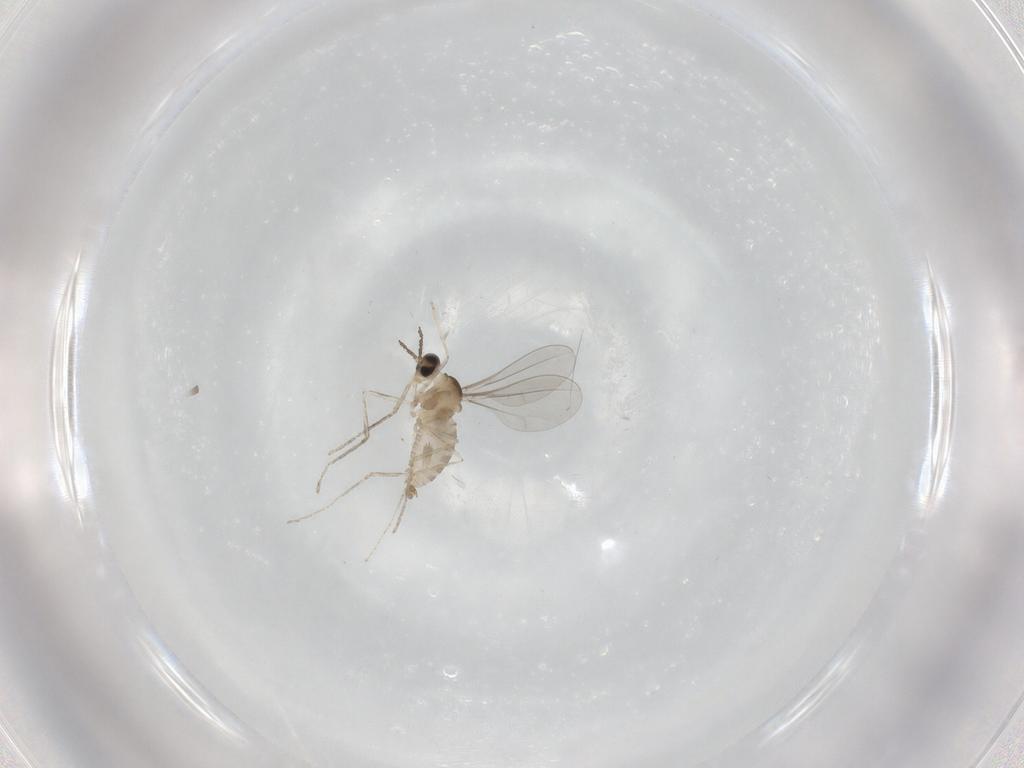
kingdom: Animalia
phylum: Arthropoda
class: Insecta
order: Diptera
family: Cecidomyiidae
